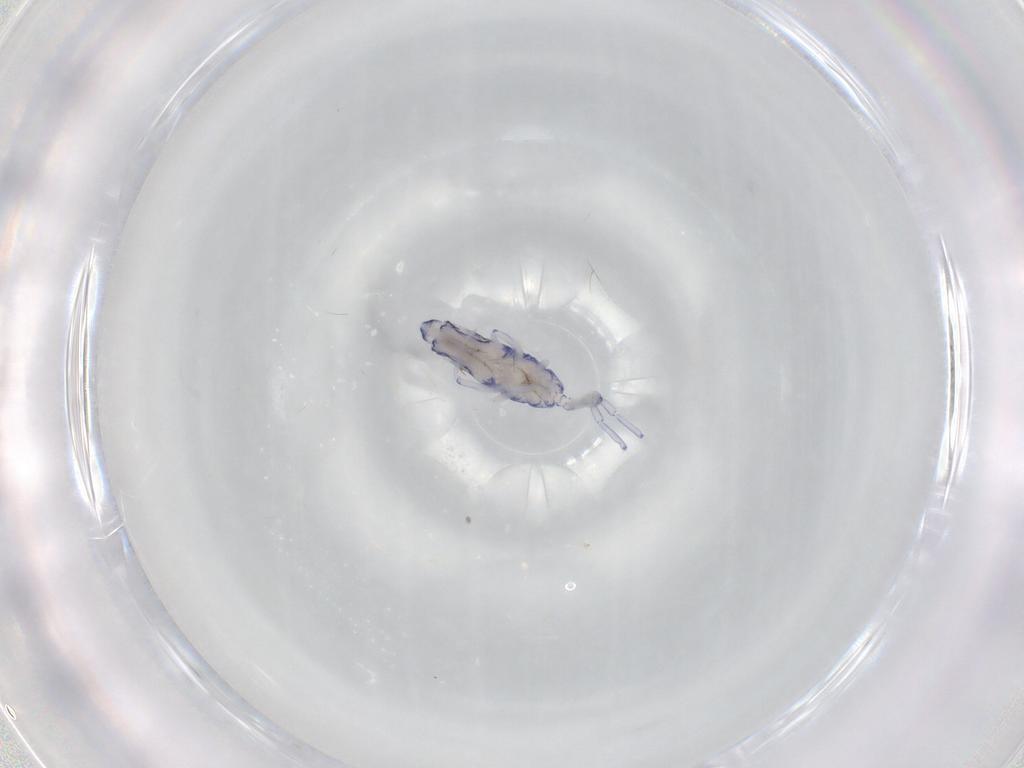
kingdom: Animalia
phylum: Arthropoda
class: Collembola
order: Entomobryomorpha
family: Entomobryidae
